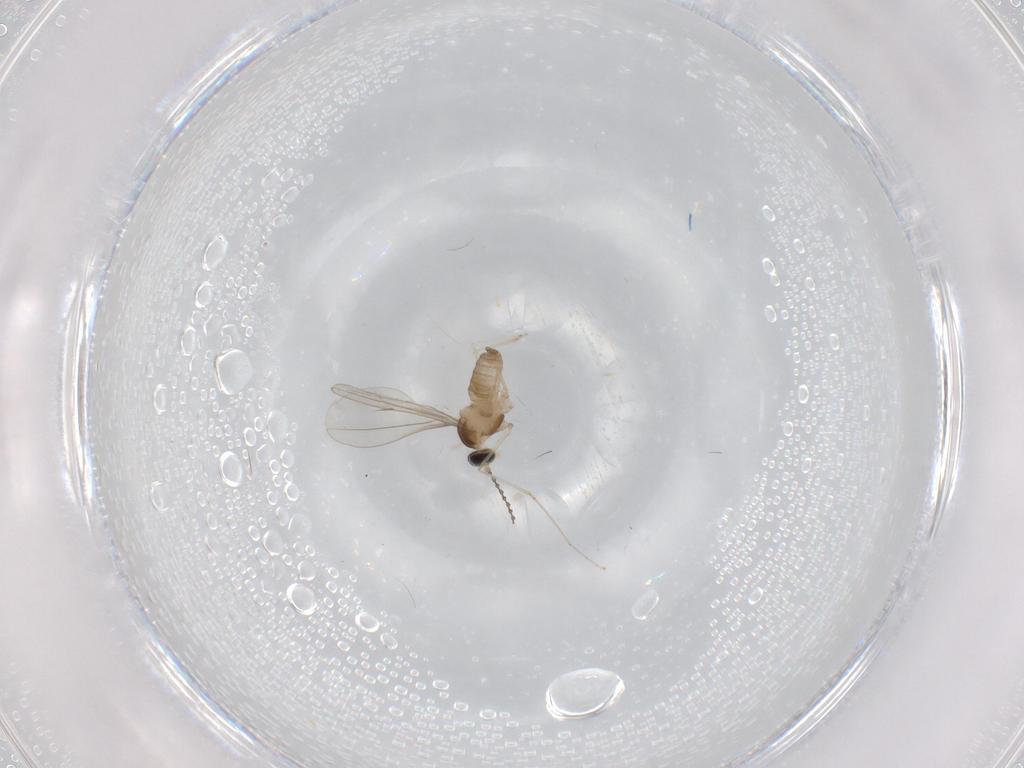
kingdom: Animalia
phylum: Arthropoda
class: Insecta
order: Diptera
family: Cecidomyiidae
